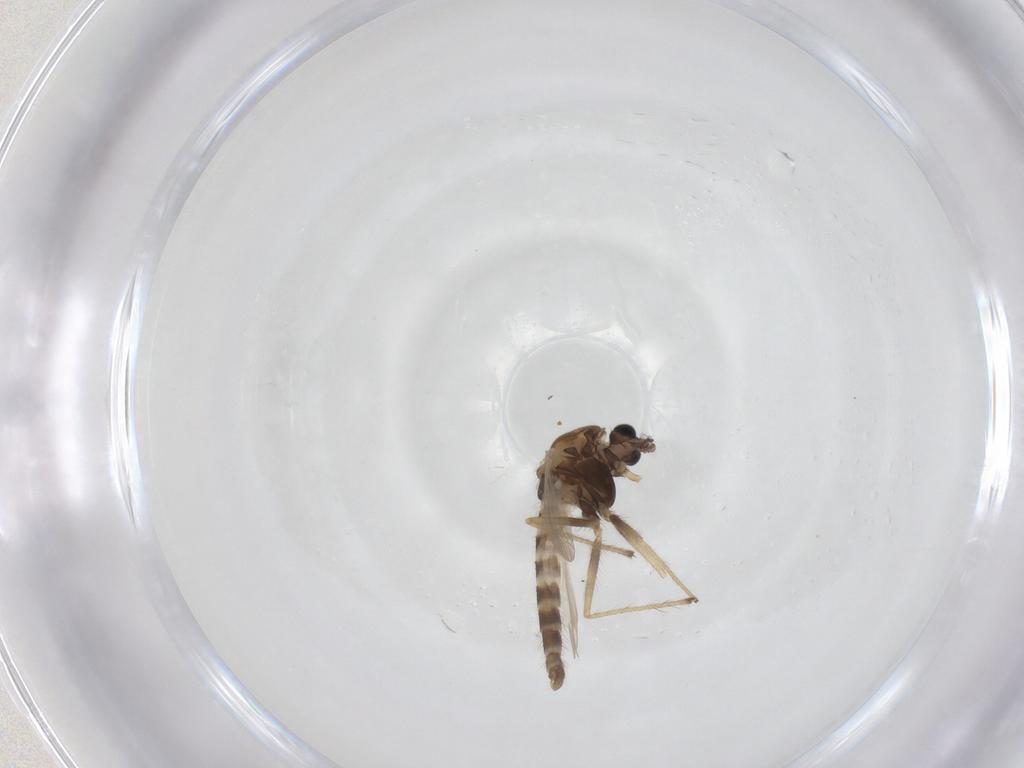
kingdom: Animalia
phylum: Arthropoda
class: Insecta
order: Diptera
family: Chironomidae
